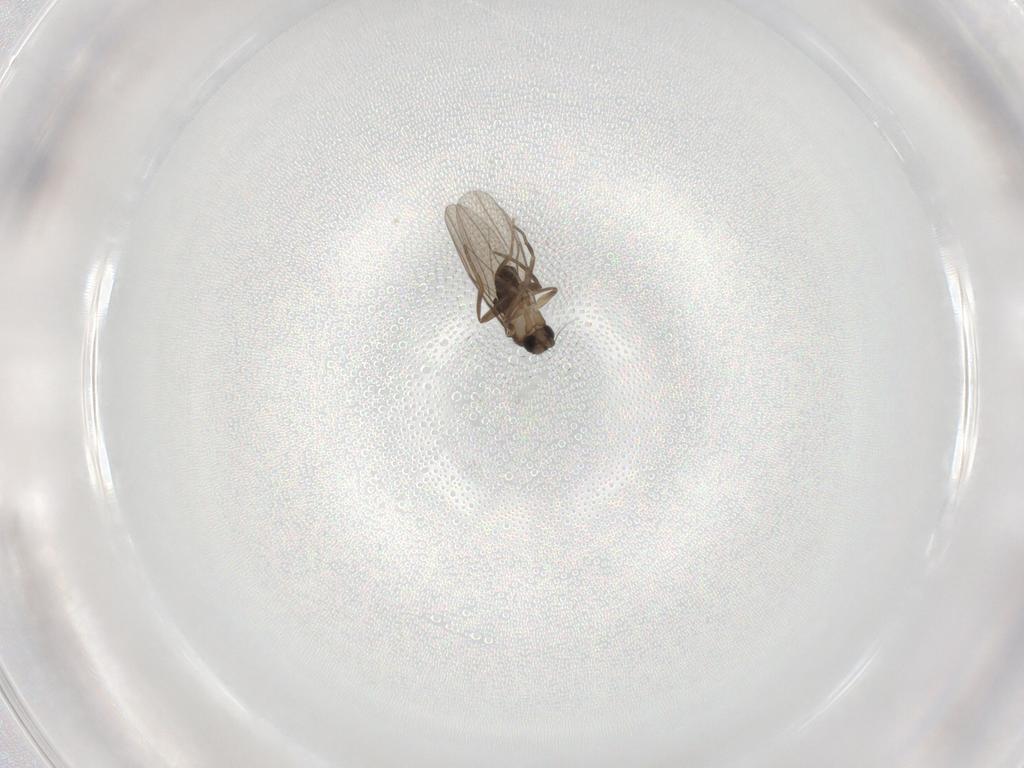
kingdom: Animalia
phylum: Arthropoda
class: Insecta
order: Diptera
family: Phoridae
